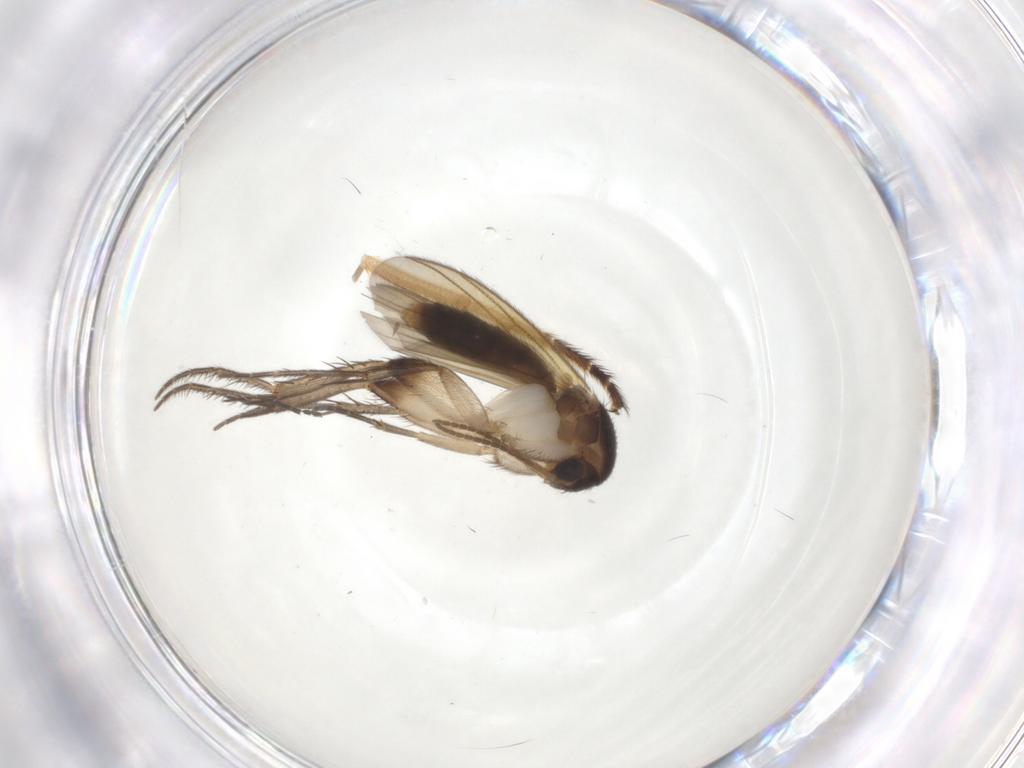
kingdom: Animalia
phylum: Arthropoda
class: Insecta
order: Diptera
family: Stratiomyidae
